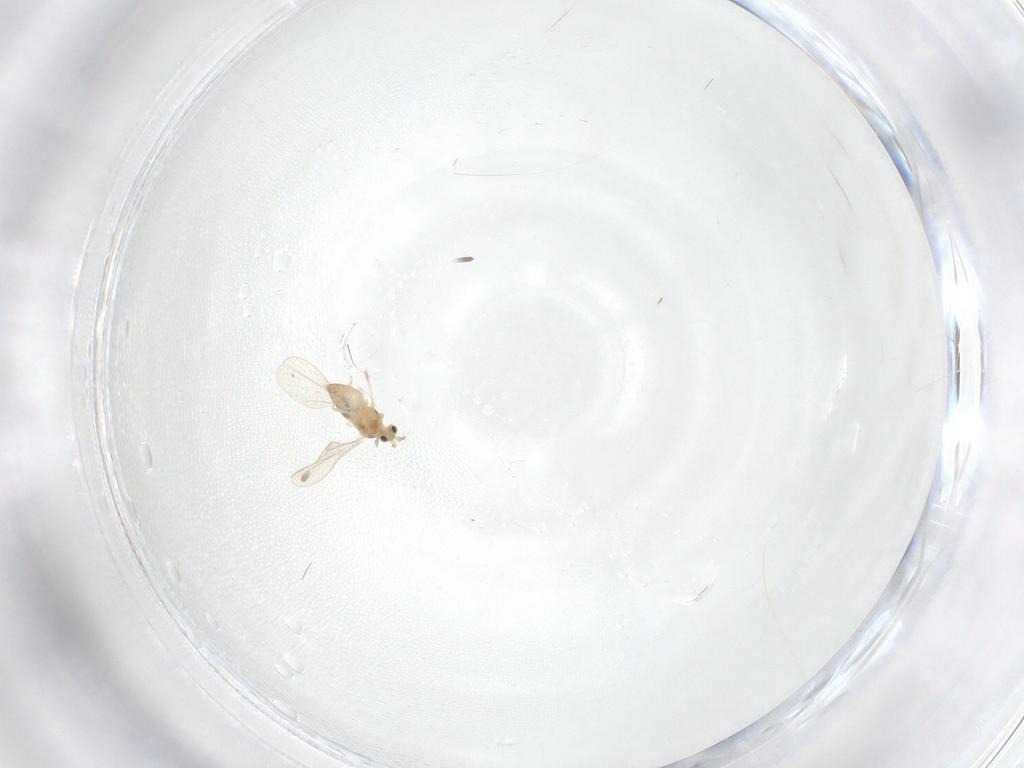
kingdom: Animalia
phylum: Arthropoda
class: Insecta
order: Diptera
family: Cecidomyiidae
